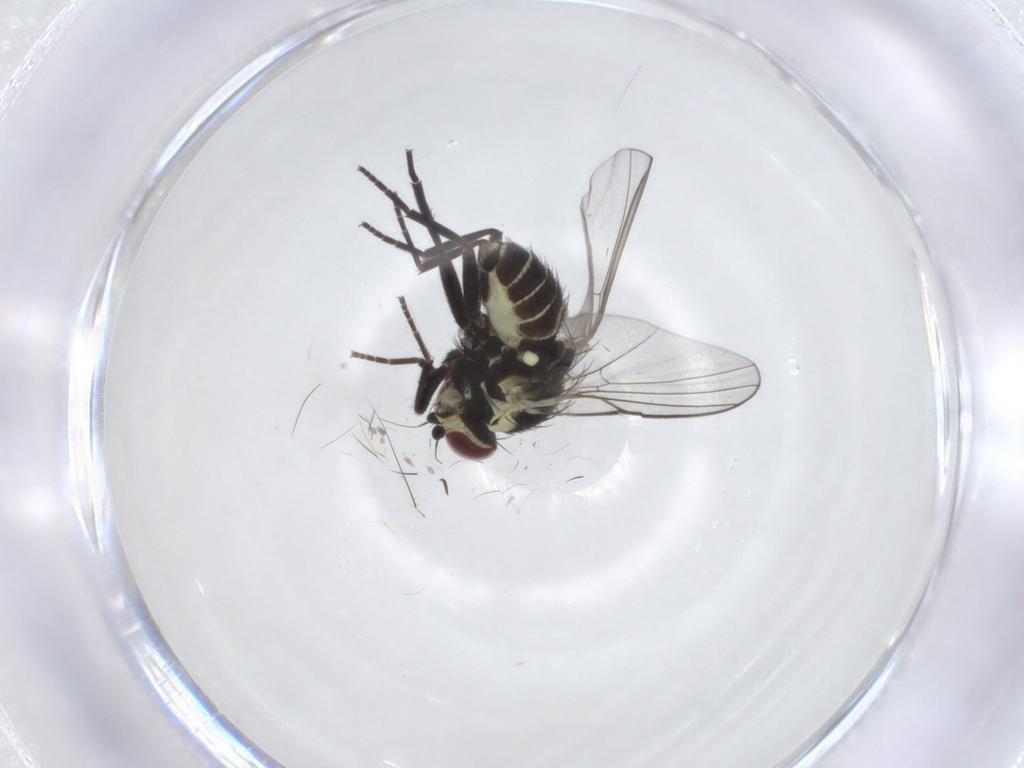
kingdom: Animalia
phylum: Arthropoda
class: Insecta
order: Diptera
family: Agromyzidae
